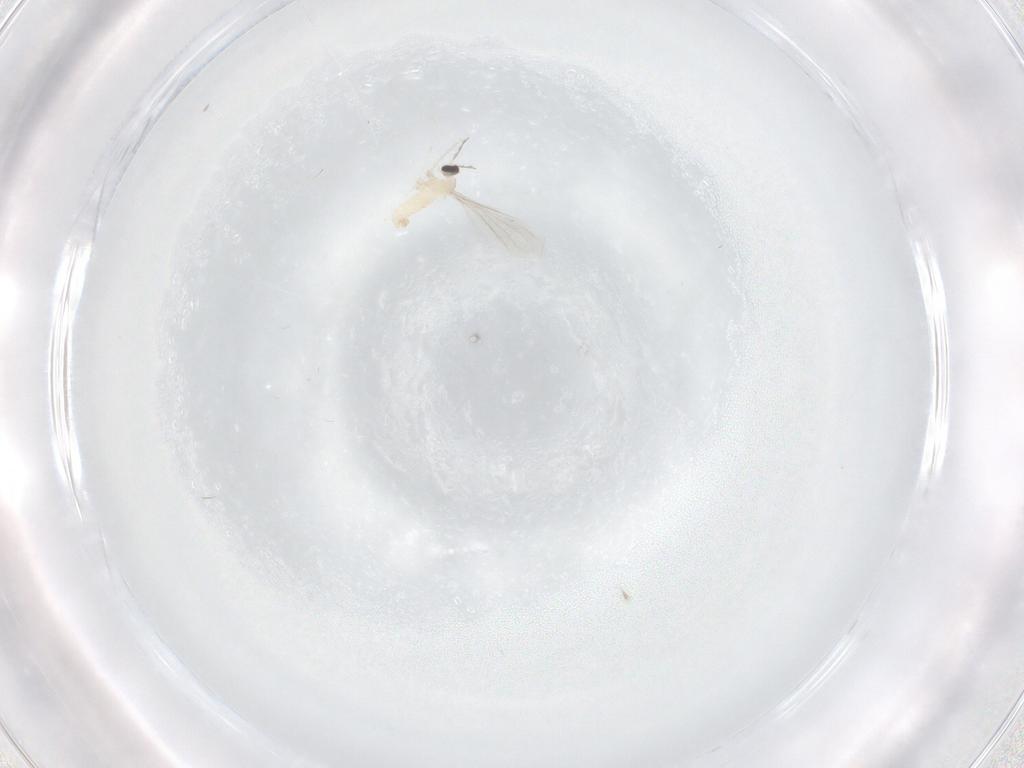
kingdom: Animalia
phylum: Arthropoda
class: Insecta
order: Diptera
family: Cecidomyiidae
